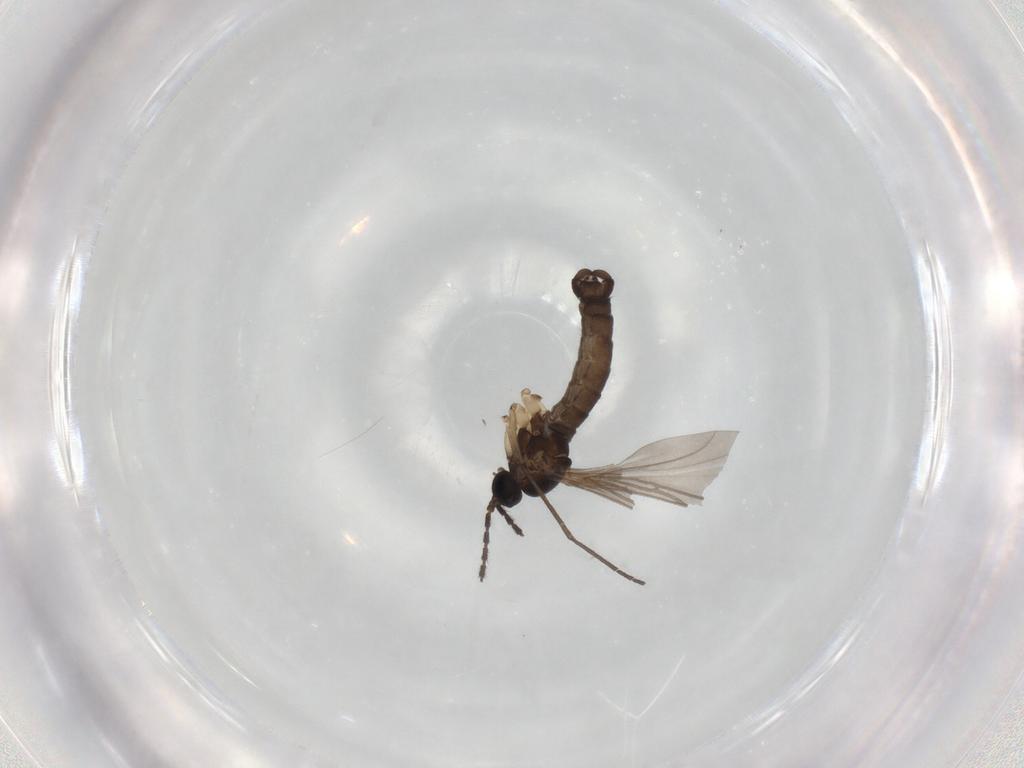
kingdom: Animalia
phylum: Arthropoda
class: Insecta
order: Diptera
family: Sciaridae
